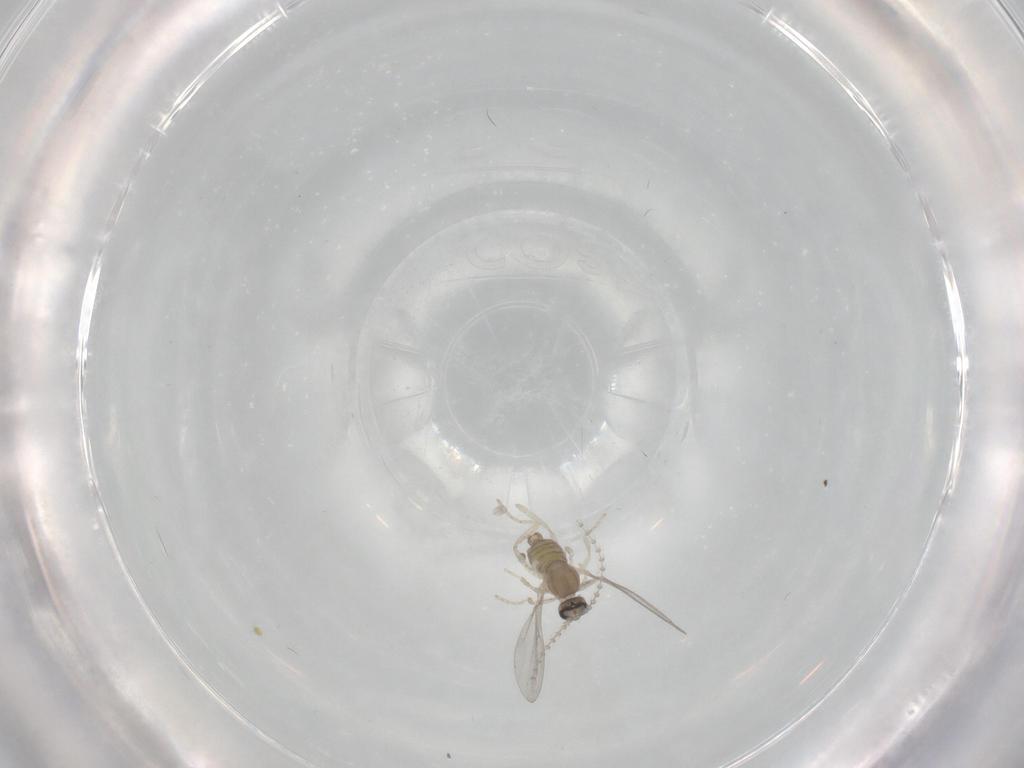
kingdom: Animalia
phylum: Arthropoda
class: Insecta
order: Diptera
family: Cecidomyiidae
